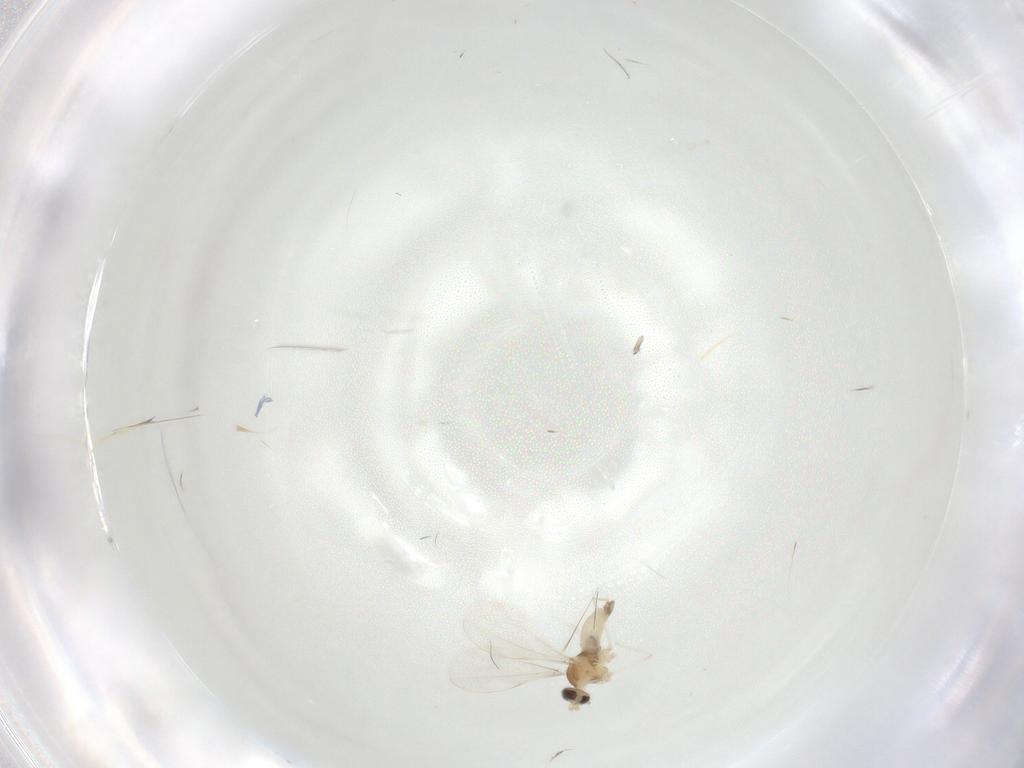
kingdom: Animalia
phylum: Arthropoda
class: Insecta
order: Diptera
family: Cecidomyiidae
